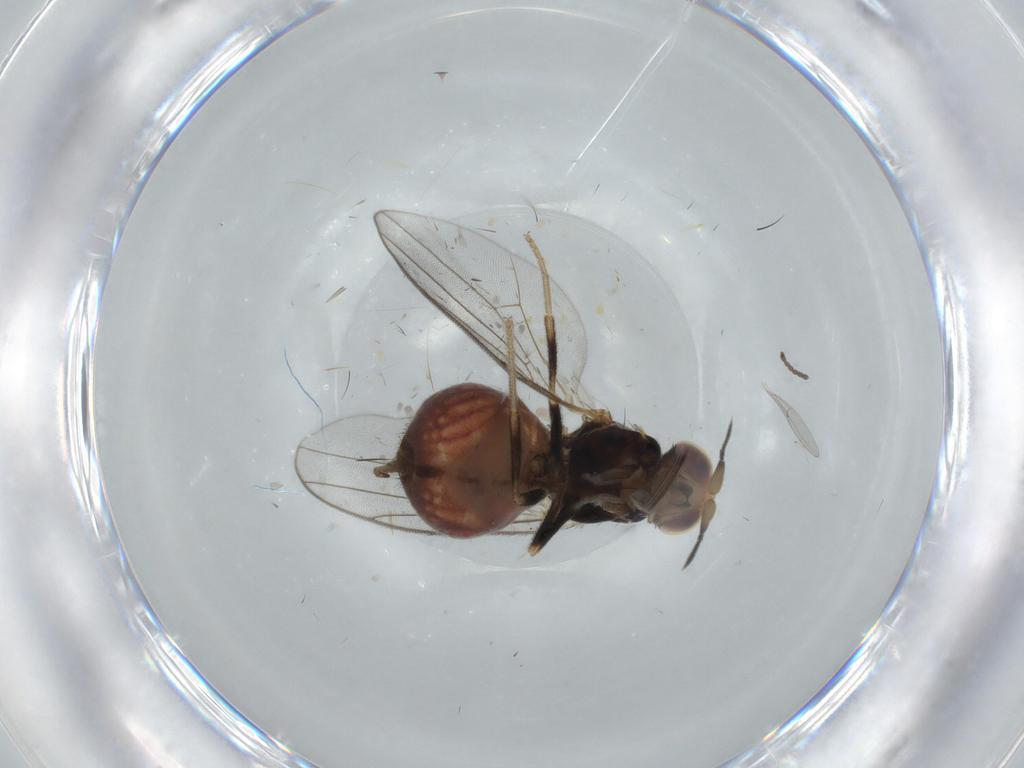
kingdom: Animalia
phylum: Arthropoda
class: Insecta
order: Diptera
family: Chloropidae
